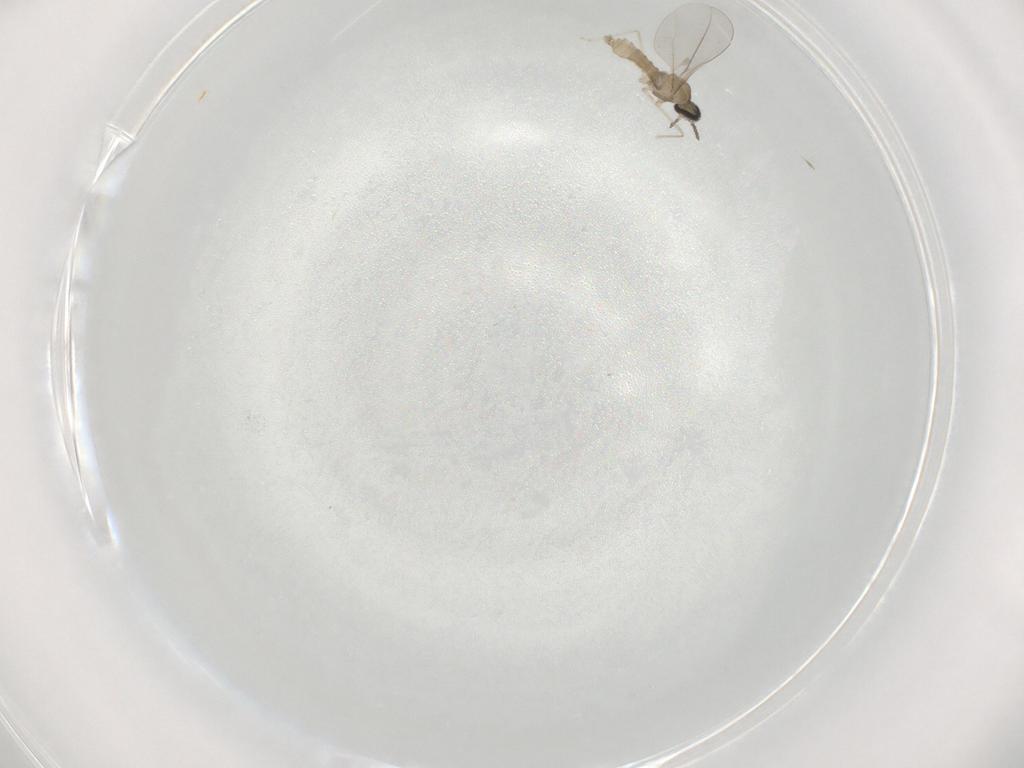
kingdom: Animalia
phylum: Arthropoda
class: Insecta
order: Diptera
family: Cecidomyiidae
